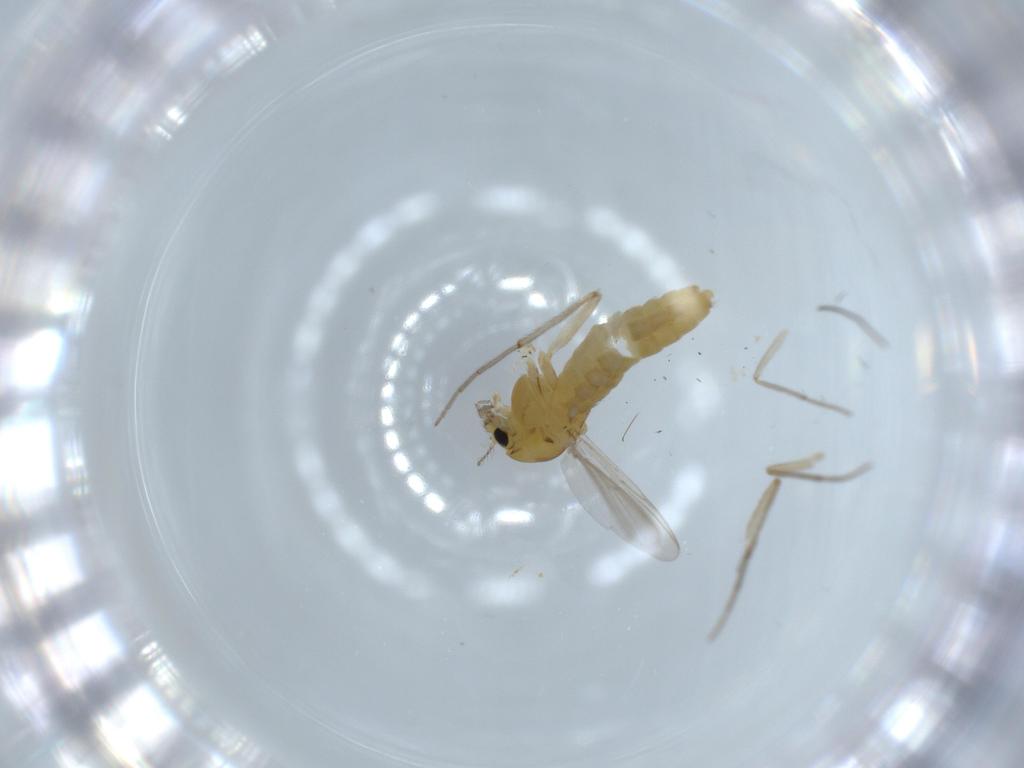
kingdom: Animalia
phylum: Arthropoda
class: Insecta
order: Diptera
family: Chironomidae
